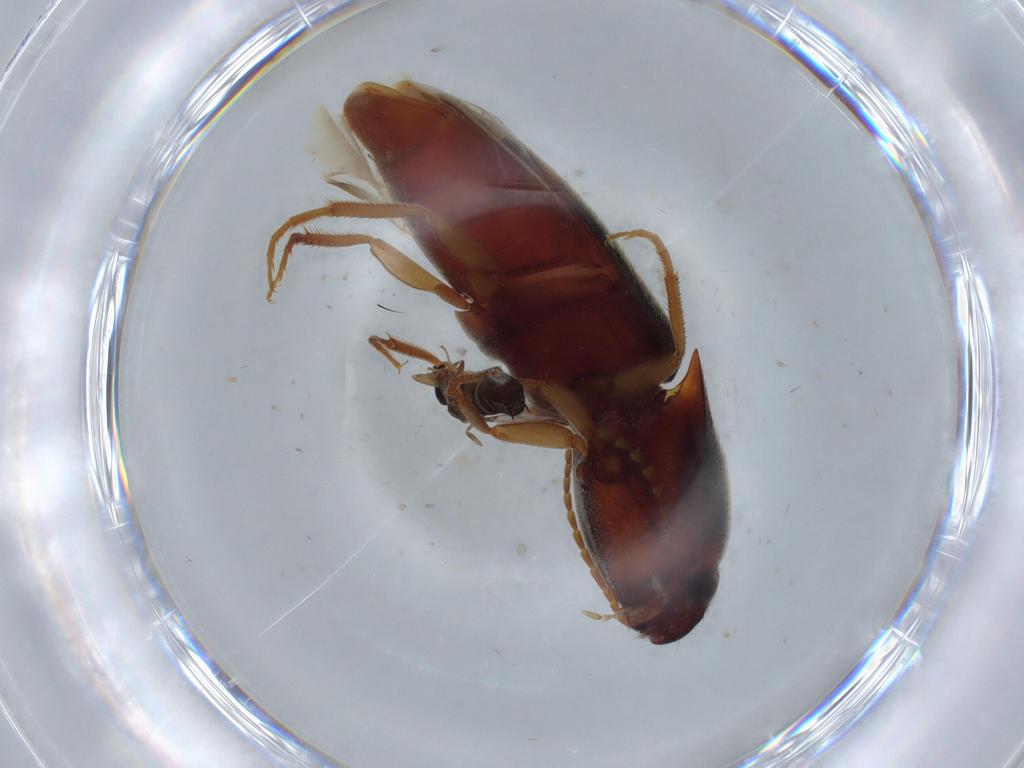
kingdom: Animalia
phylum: Arthropoda
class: Insecta
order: Coleoptera
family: Elateridae
